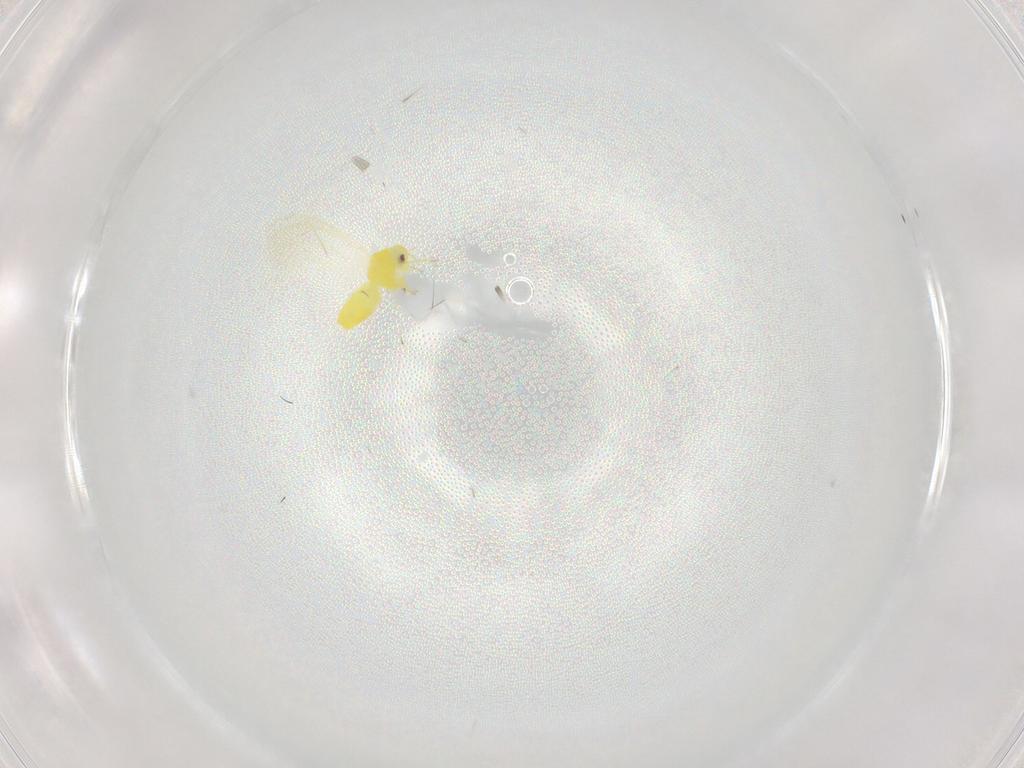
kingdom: Animalia
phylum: Arthropoda
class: Insecta
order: Hemiptera
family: Aleyrodidae
